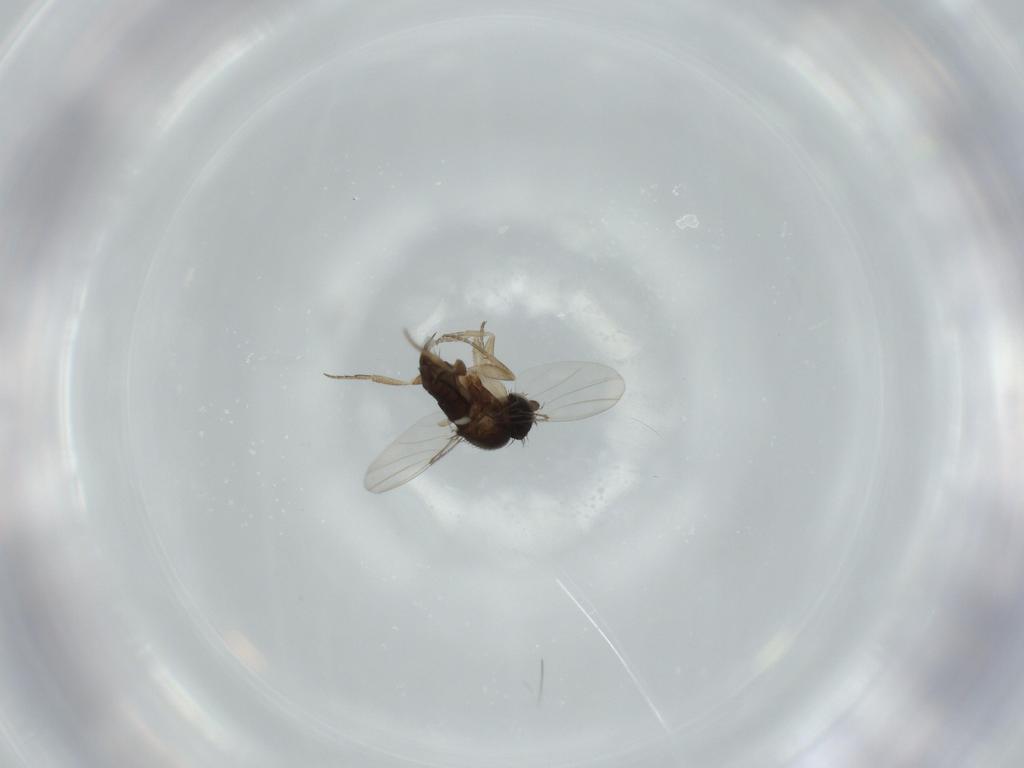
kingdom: Animalia
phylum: Arthropoda
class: Insecta
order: Diptera
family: Phoridae
